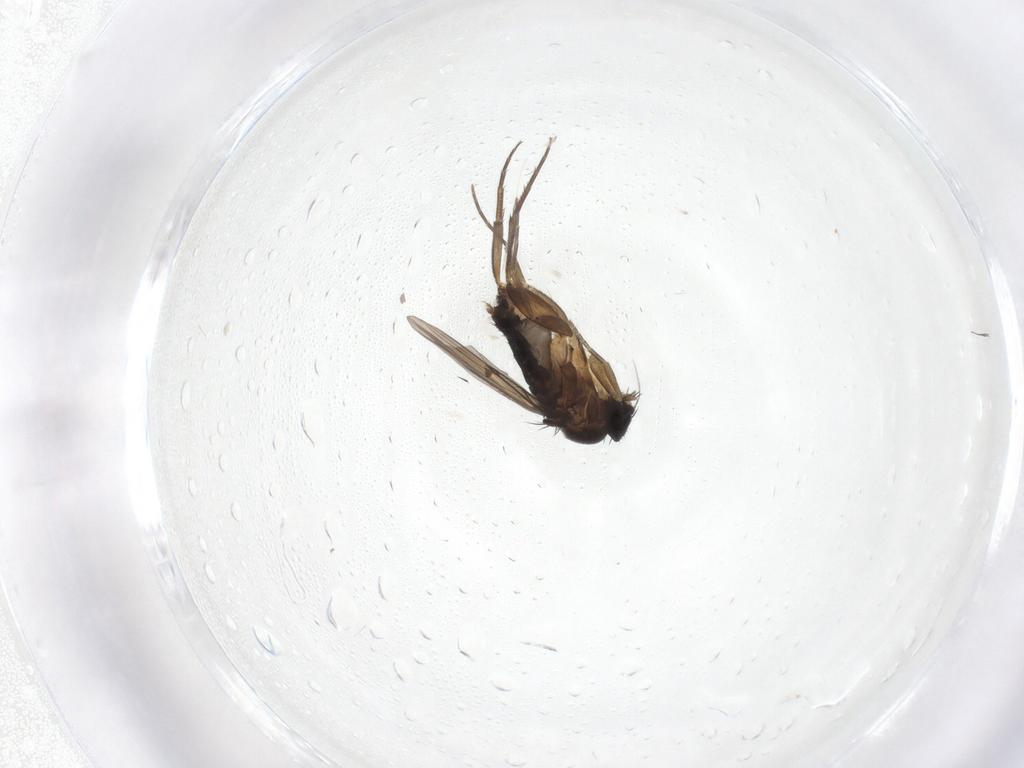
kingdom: Animalia
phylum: Arthropoda
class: Insecta
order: Diptera
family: Phoridae
